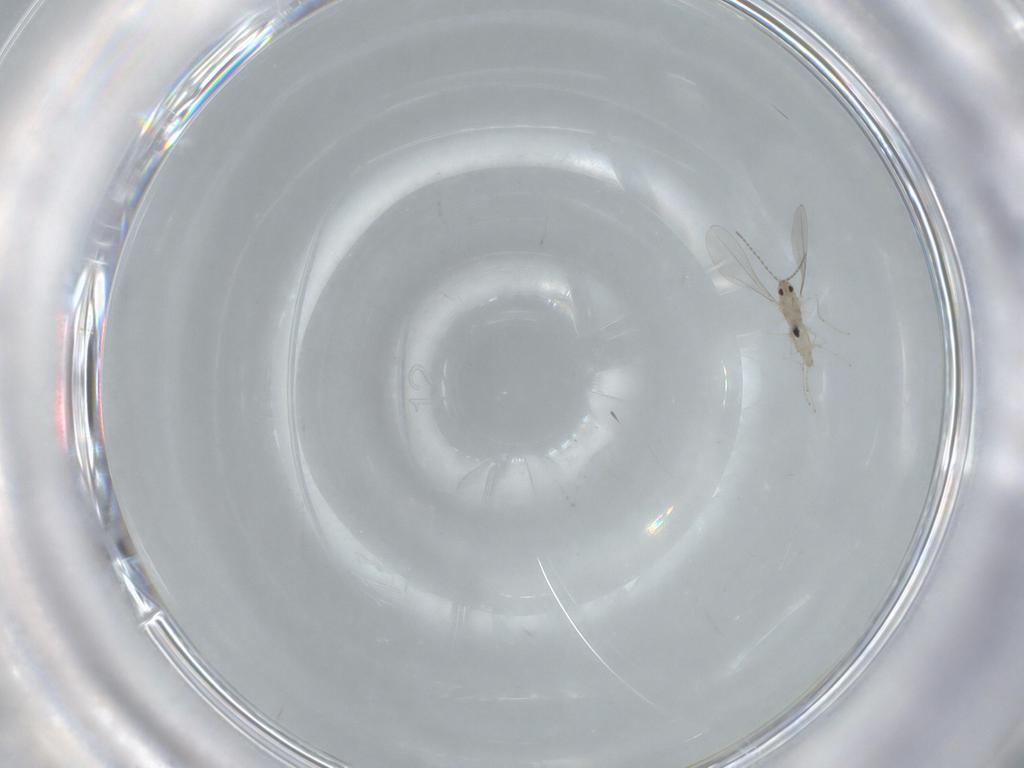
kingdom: Animalia
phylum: Arthropoda
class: Insecta
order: Diptera
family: Cecidomyiidae
